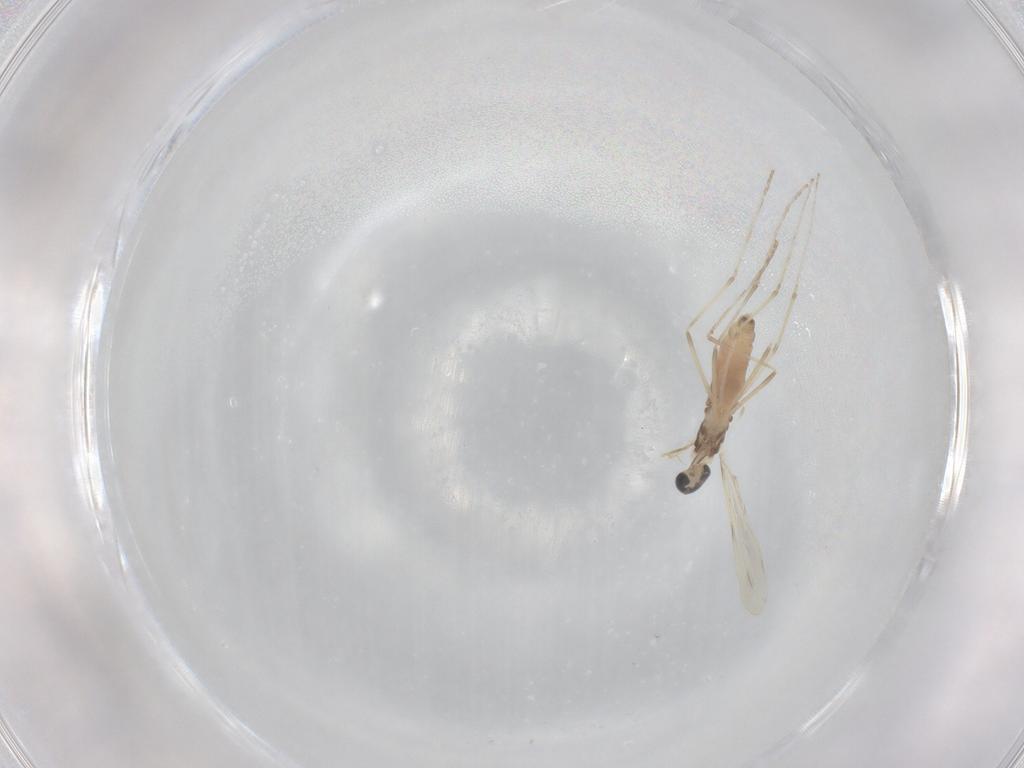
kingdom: Animalia
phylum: Arthropoda
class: Insecta
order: Diptera
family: Cecidomyiidae
